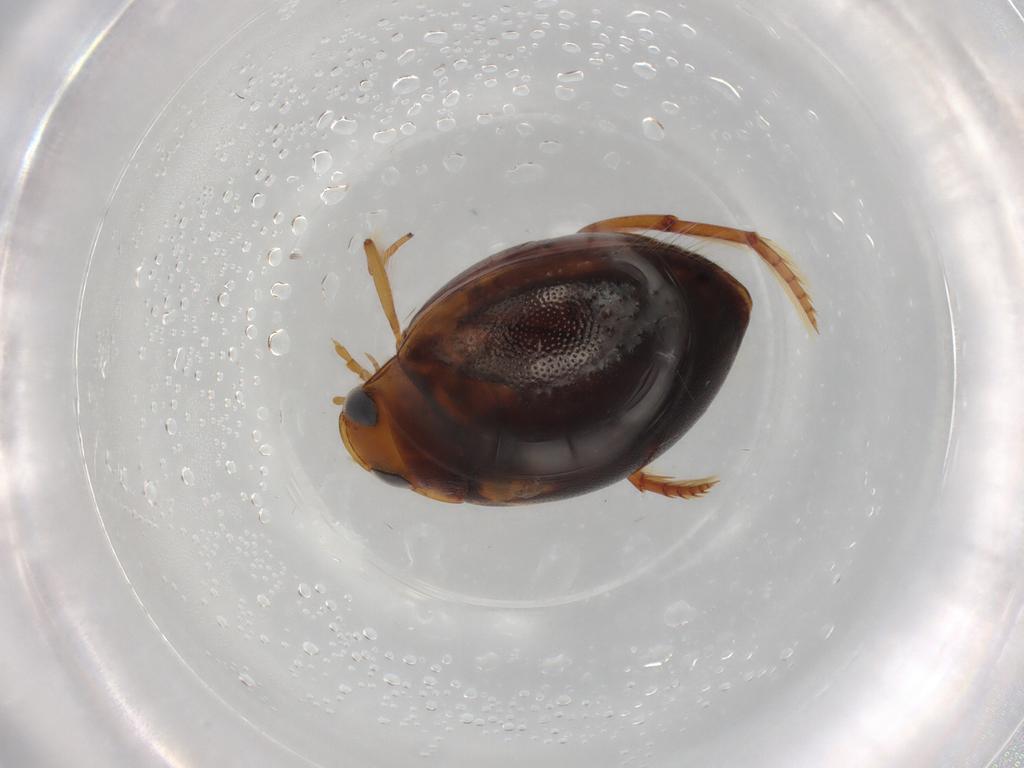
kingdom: Animalia
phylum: Arthropoda
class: Insecta
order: Coleoptera
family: Dytiscidae
